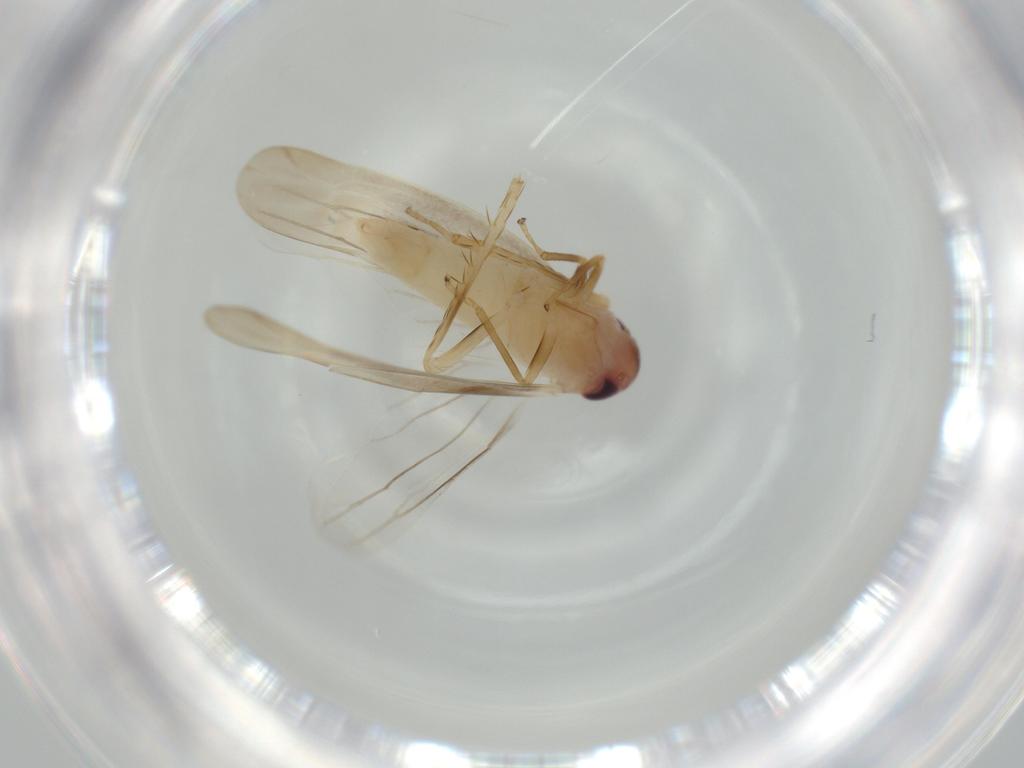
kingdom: Animalia
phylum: Arthropoda
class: Insecta
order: Hemiptera
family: Cicadellidae
